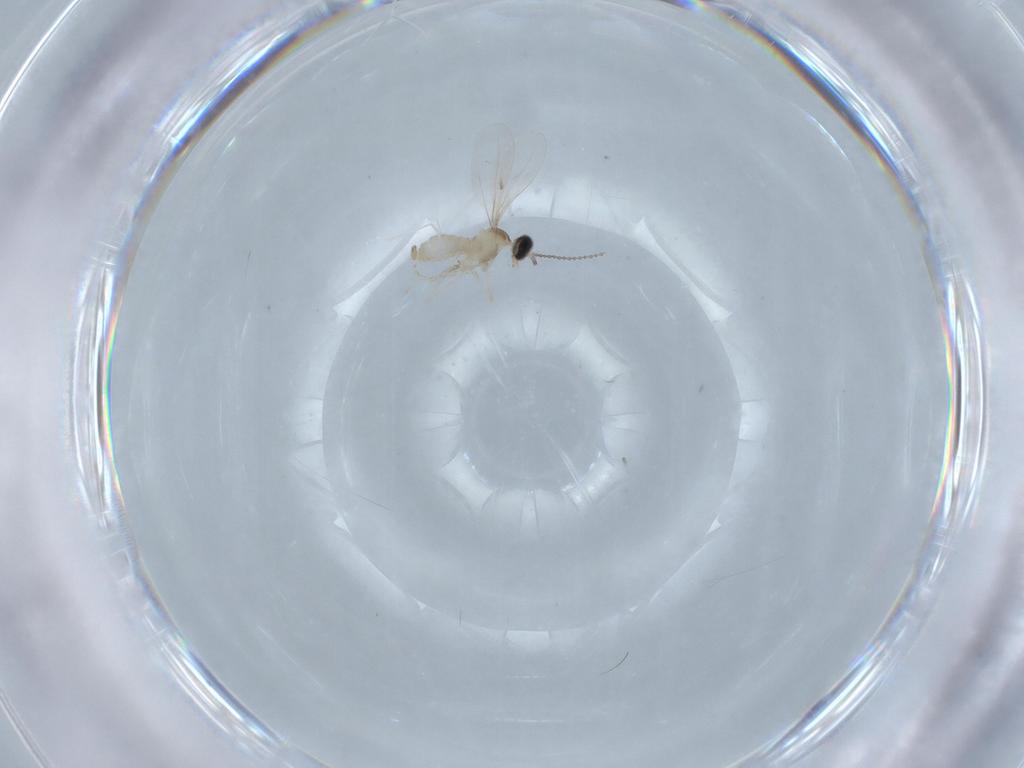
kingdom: Animalia
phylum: Arthropoda
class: Insecta
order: Diptera
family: Cecidomyiidae
